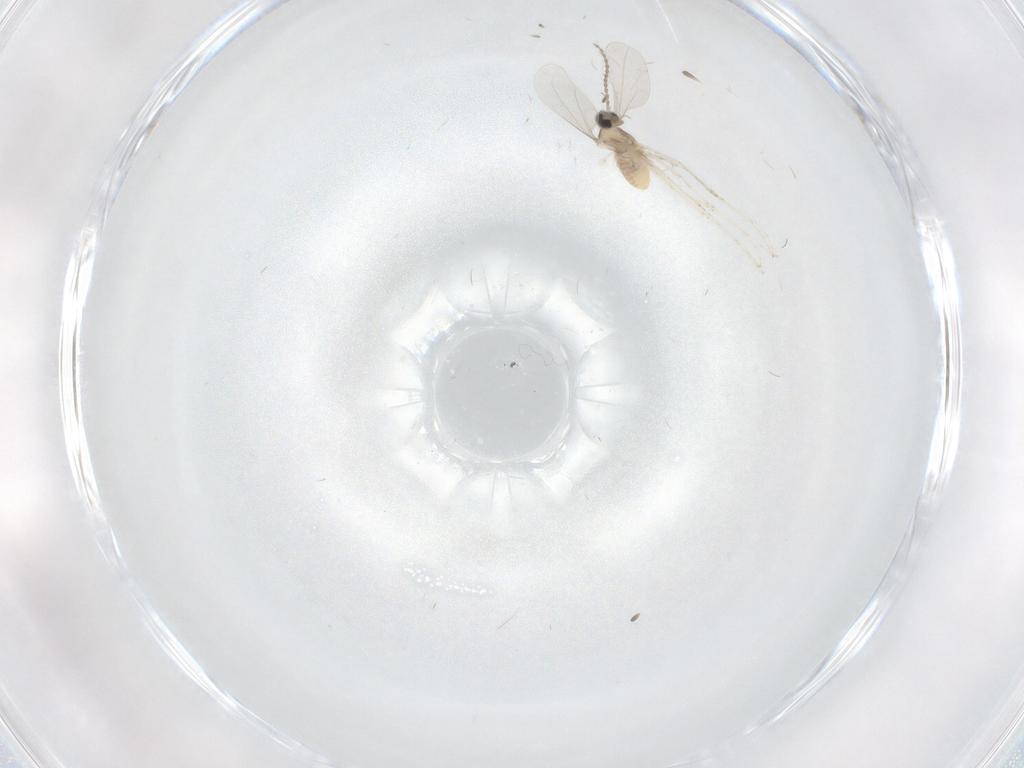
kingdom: Animalia
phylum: Arthropoda
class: Insecta
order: Diptera
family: Cecidomyiidae
